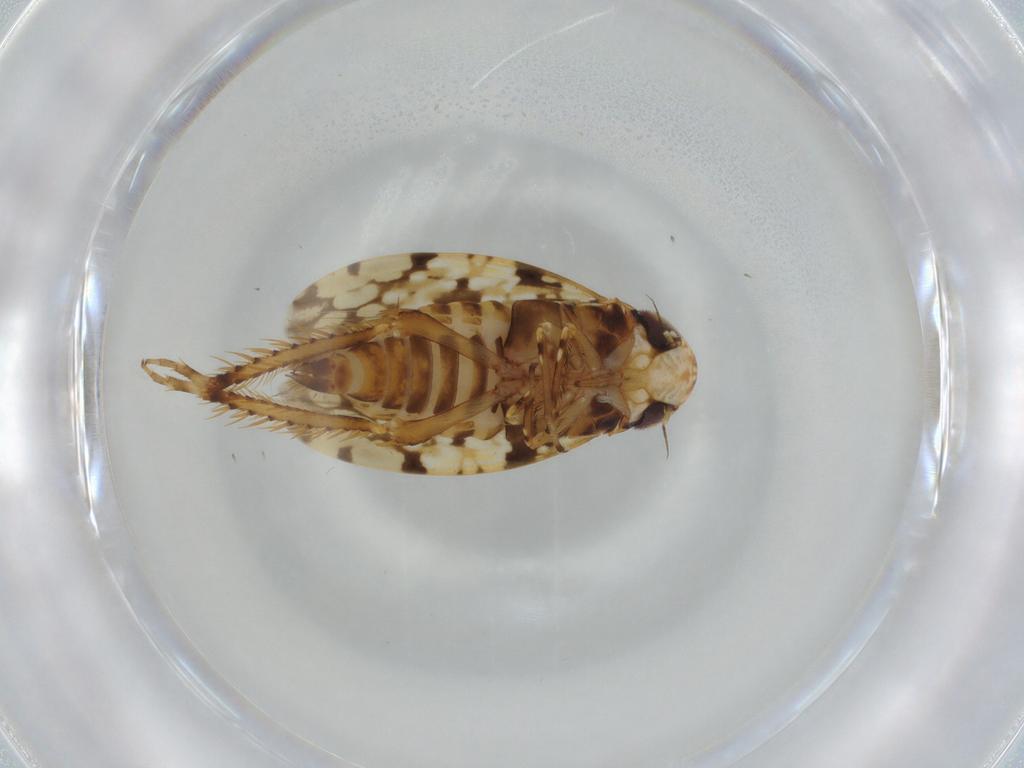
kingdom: Animalia
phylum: Arthropoda
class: Insecta
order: Hemiptera
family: Cicadellidae
